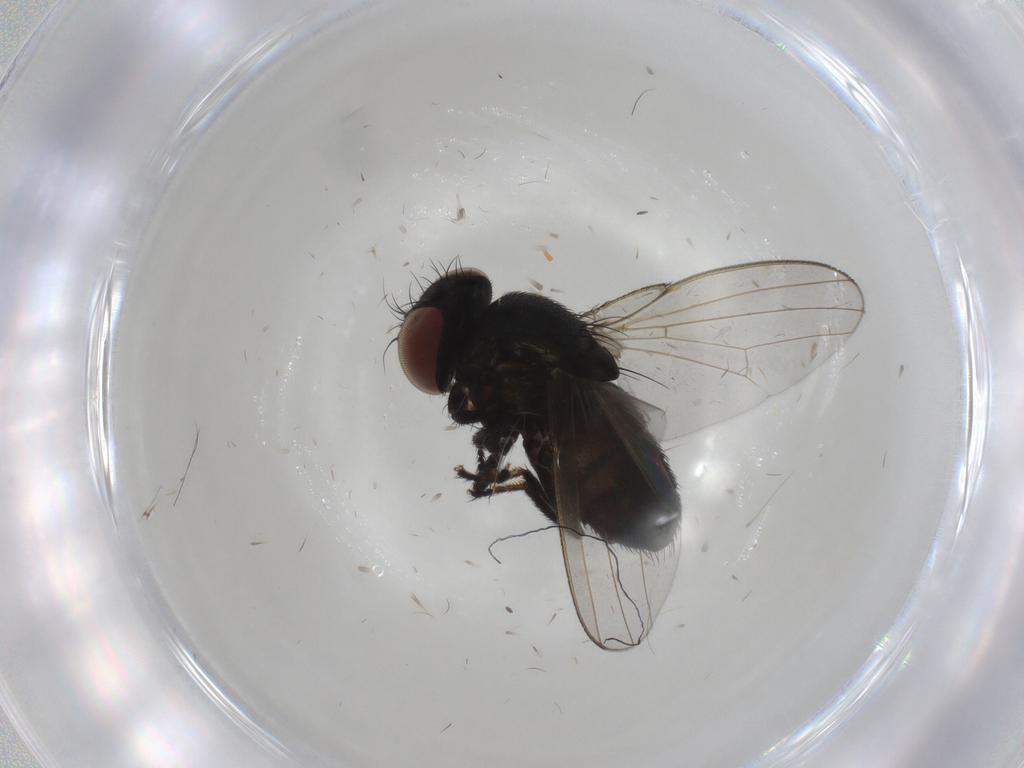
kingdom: Animalia
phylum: Arthropoda
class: Insecta
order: Diptera
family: Milichiidae
